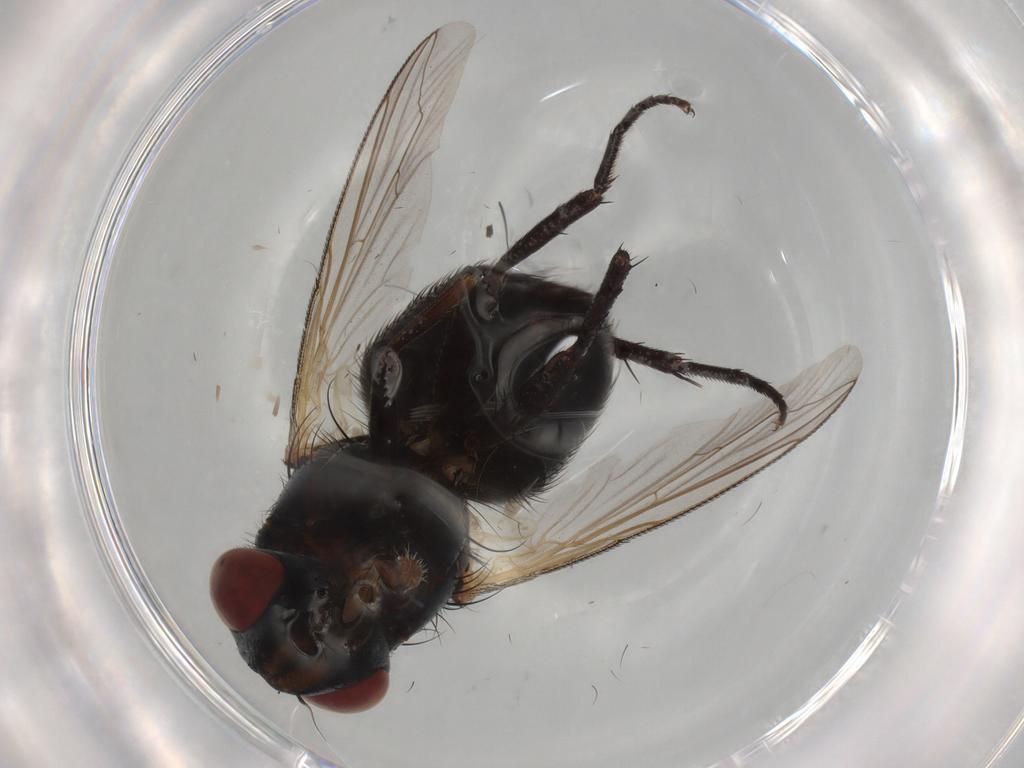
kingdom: Animalia
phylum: Arthropoda
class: Insecta
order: Diptera
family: Sarcophagidae
